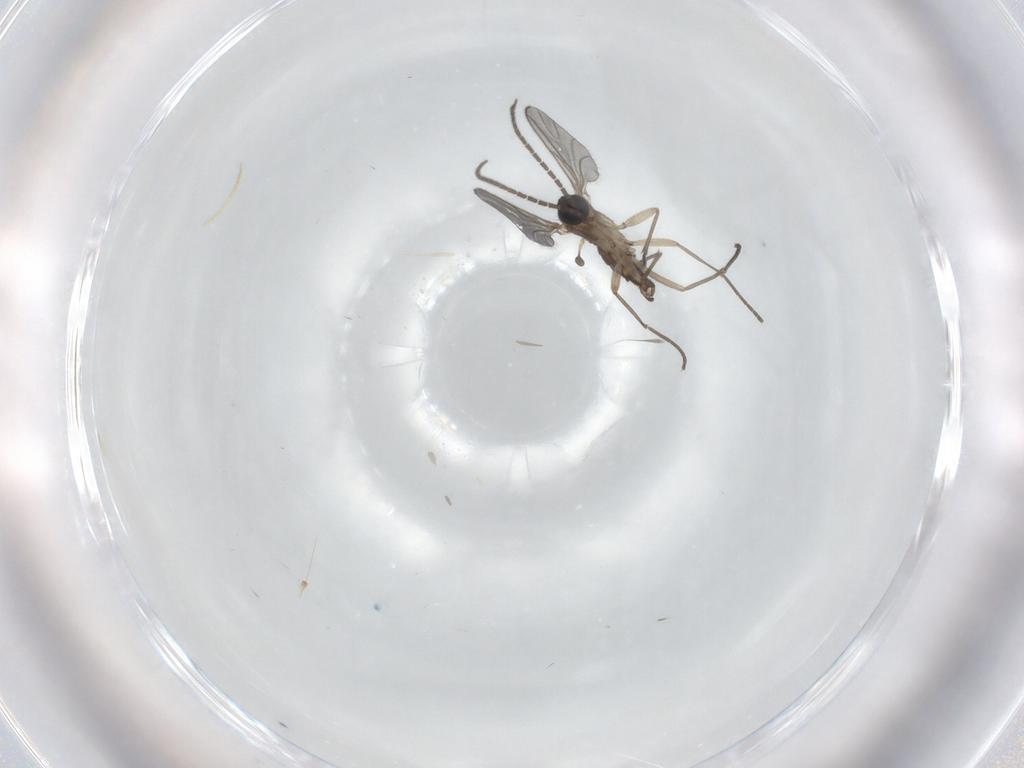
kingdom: Animalia
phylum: Arthropoda
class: Insecta
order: Diptera
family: Sciaridae
